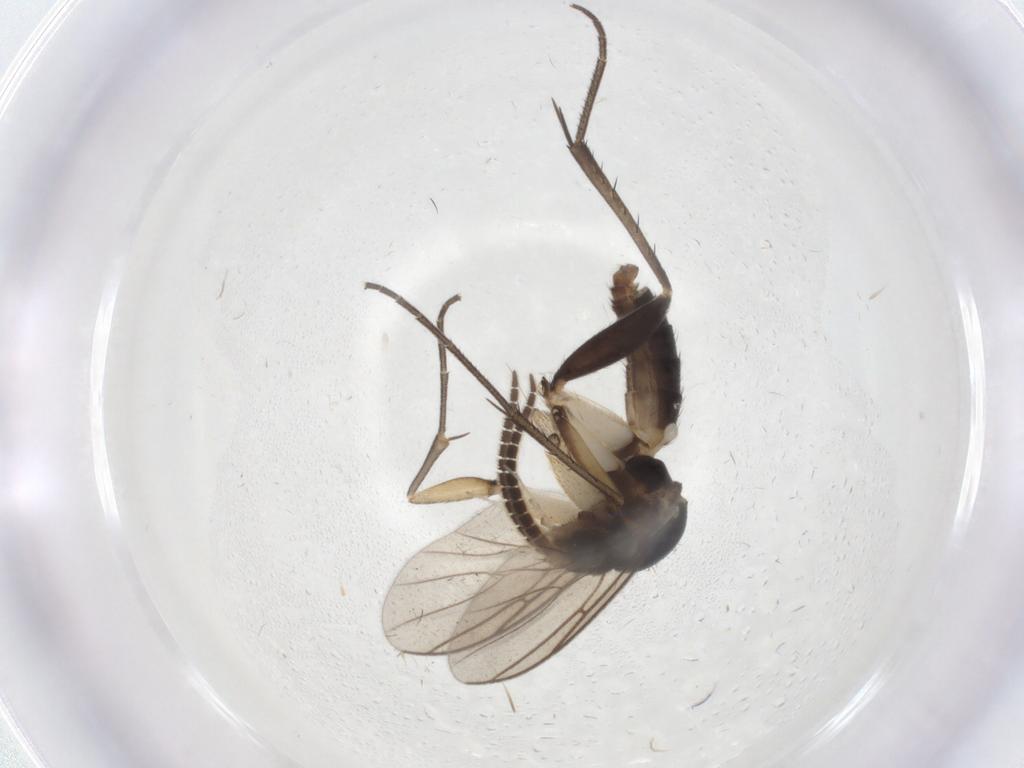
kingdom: Animalia
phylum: Arthropoda
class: Insecta
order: Diptera
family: Mycetophilidae
